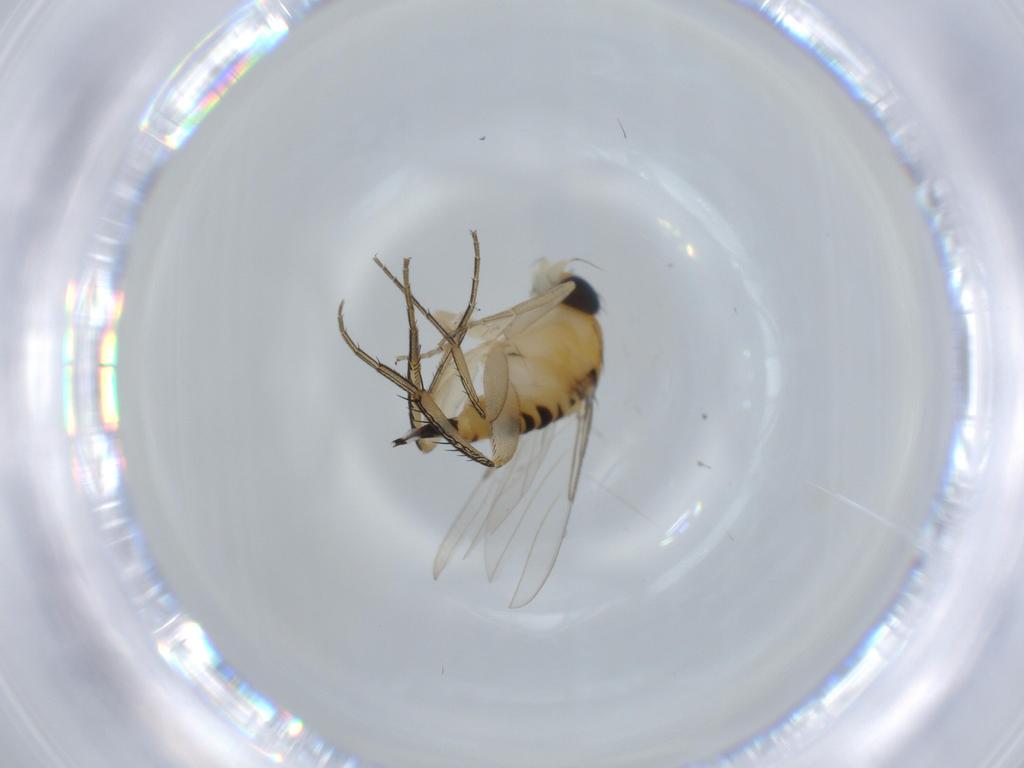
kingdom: Animalia
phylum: Arthropoda
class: Insecta
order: Diptera
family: Phoridae
